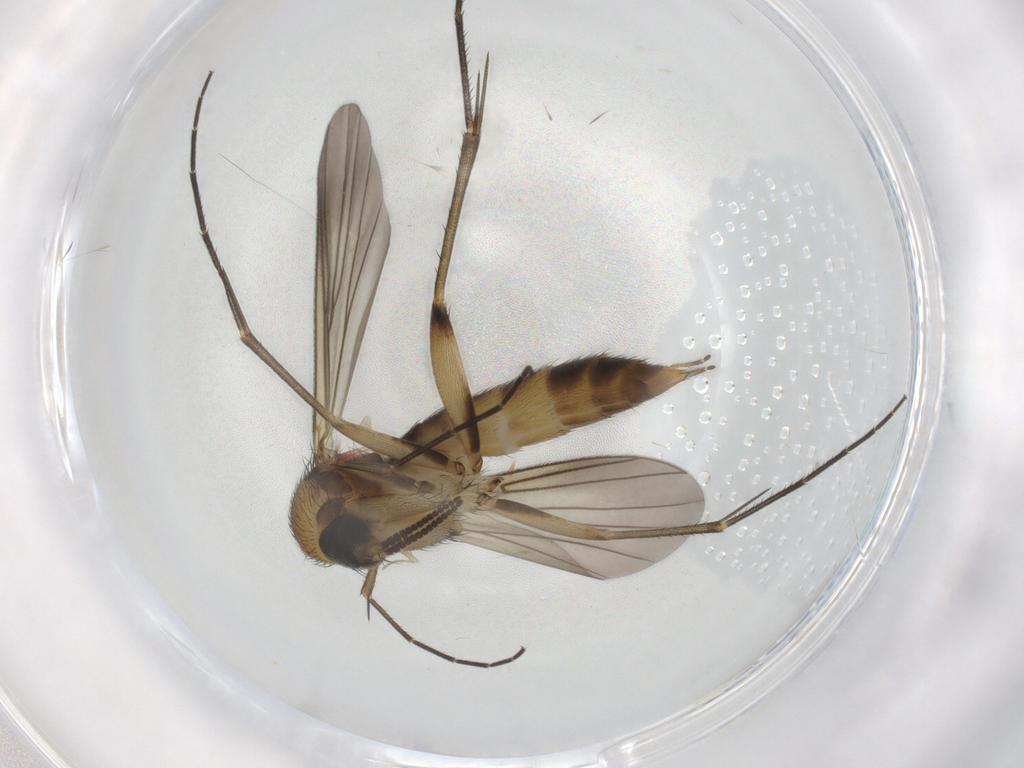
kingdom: Animalia
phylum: Arthropoda
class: Insecta
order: Diptera
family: Mycetophilidae
